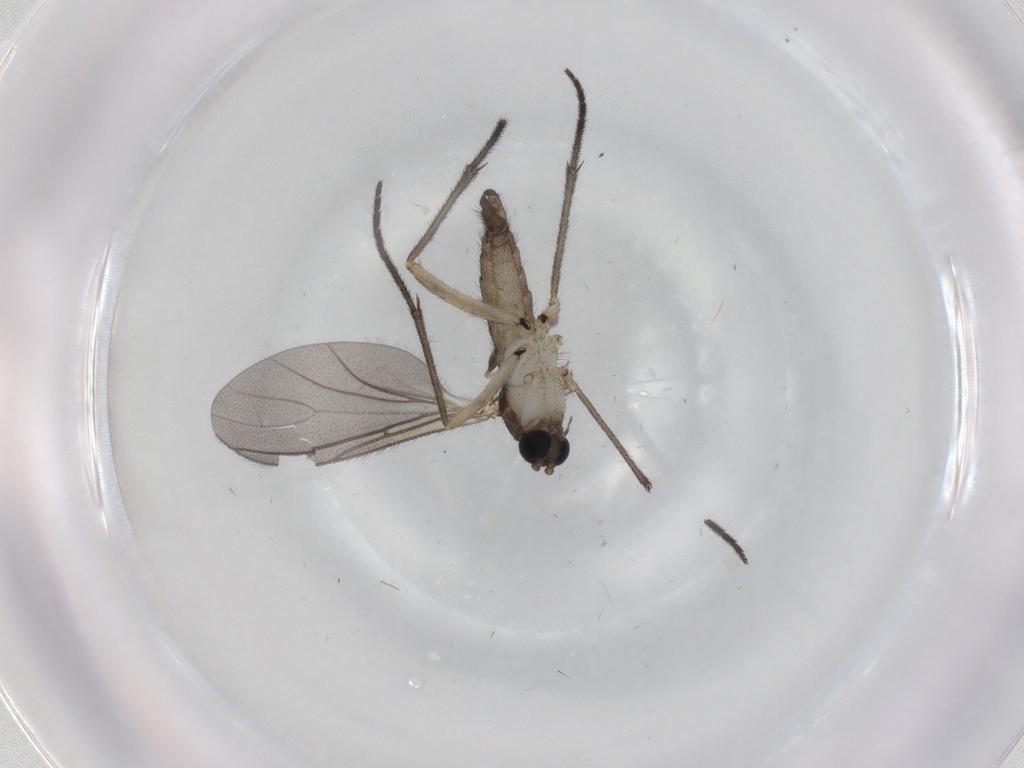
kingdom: Animalia
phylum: Arthropoda
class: Insecta
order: Diptera
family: Sciaridae
